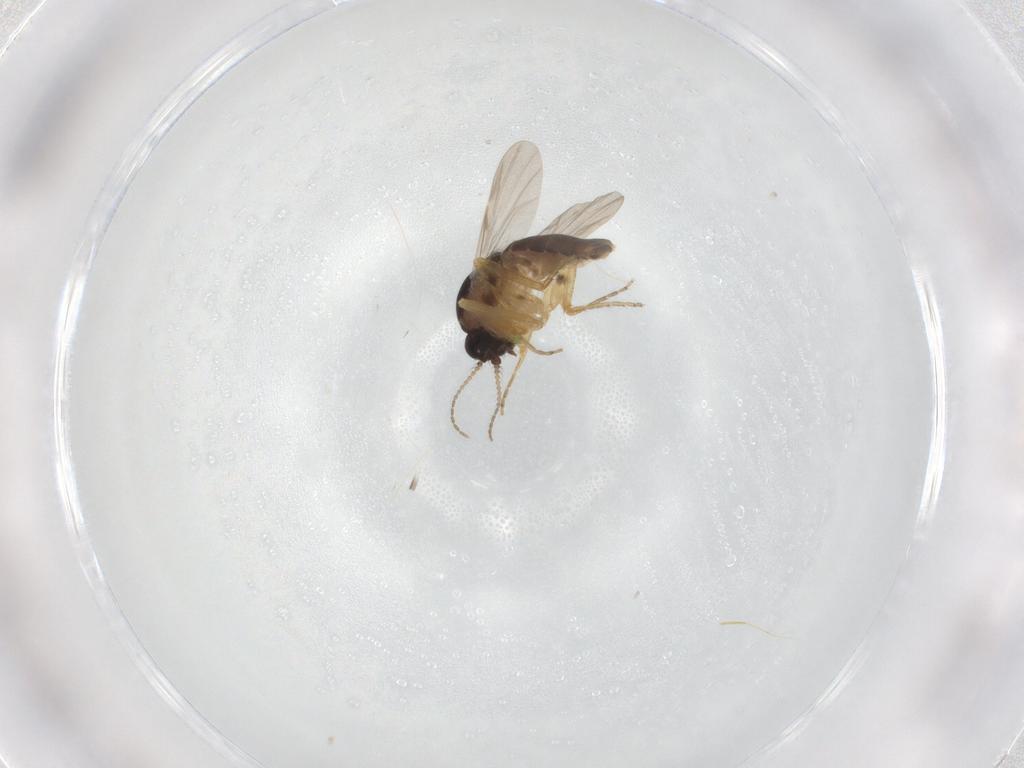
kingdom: Animalia
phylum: Arthropoda
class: Insecta
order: Diptera
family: Ceratopogonidae
